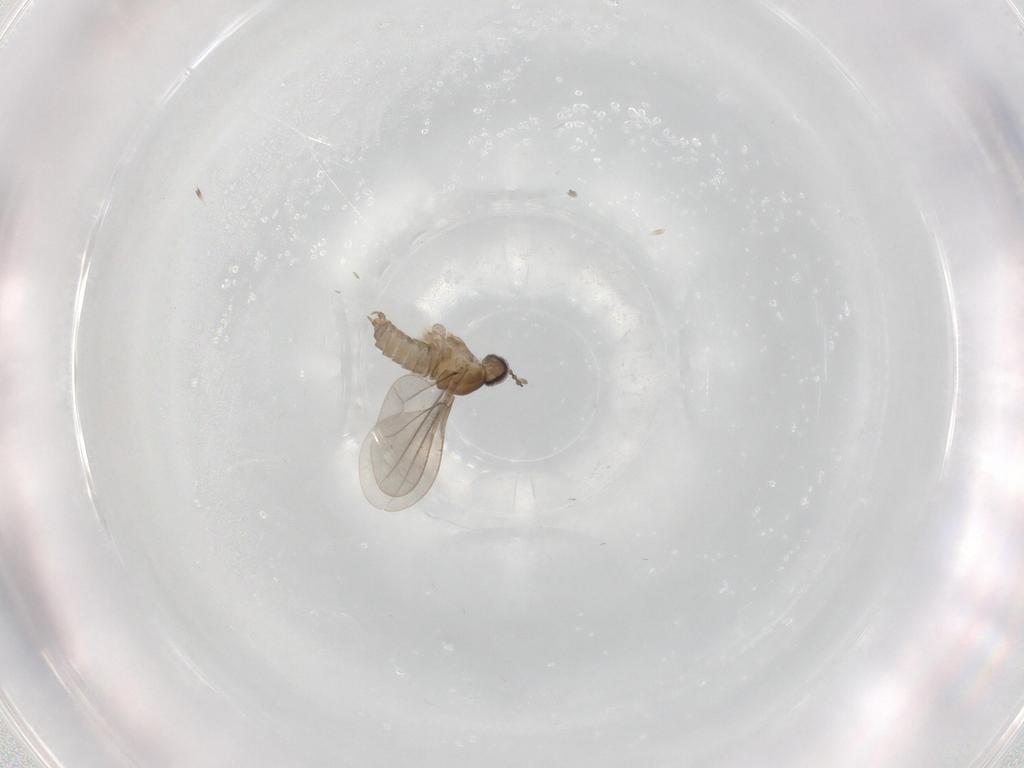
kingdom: Animalia
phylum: Arthropoda
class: Insecta
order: Diptera
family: Cecidomyiidae
